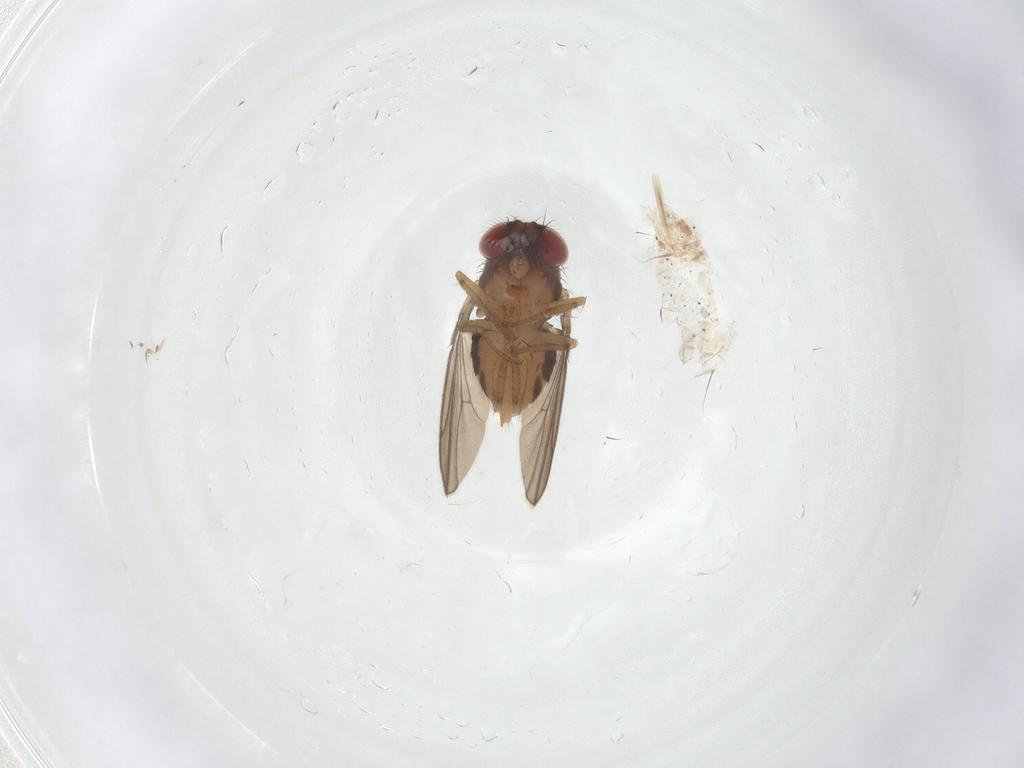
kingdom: Animalia
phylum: Arthropoda
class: Insecta
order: Diptera
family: Drosophilidae
